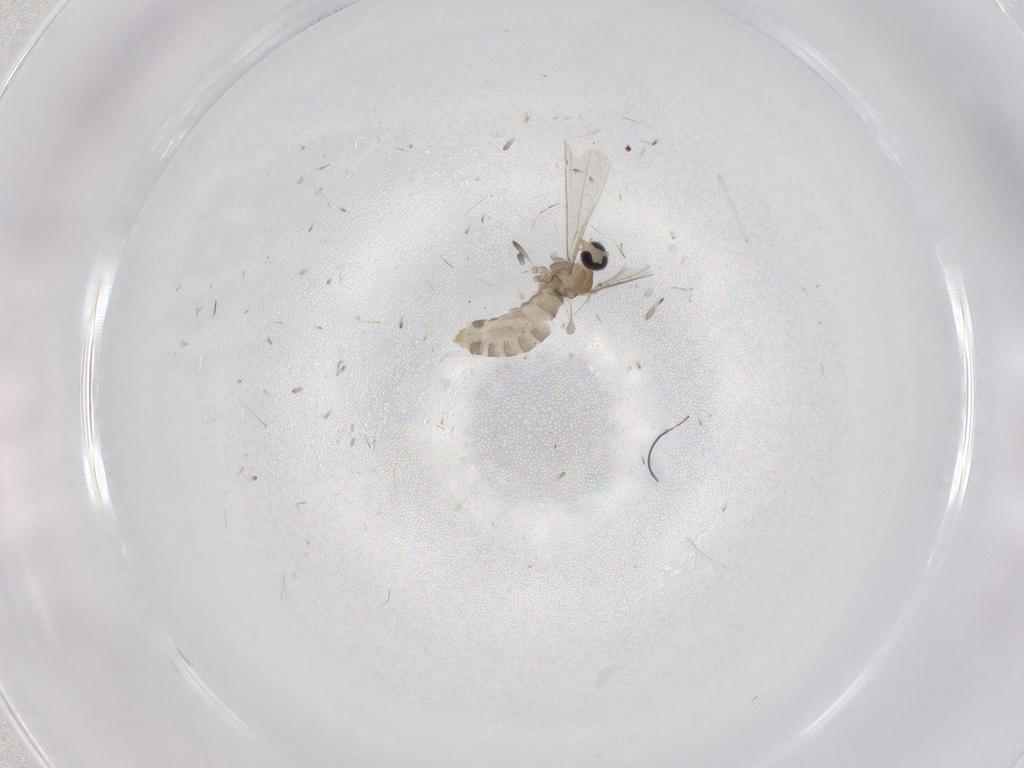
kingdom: Animalia
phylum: Arthropoda
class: Insecta
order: Diptera
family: Cecidomyiidae
